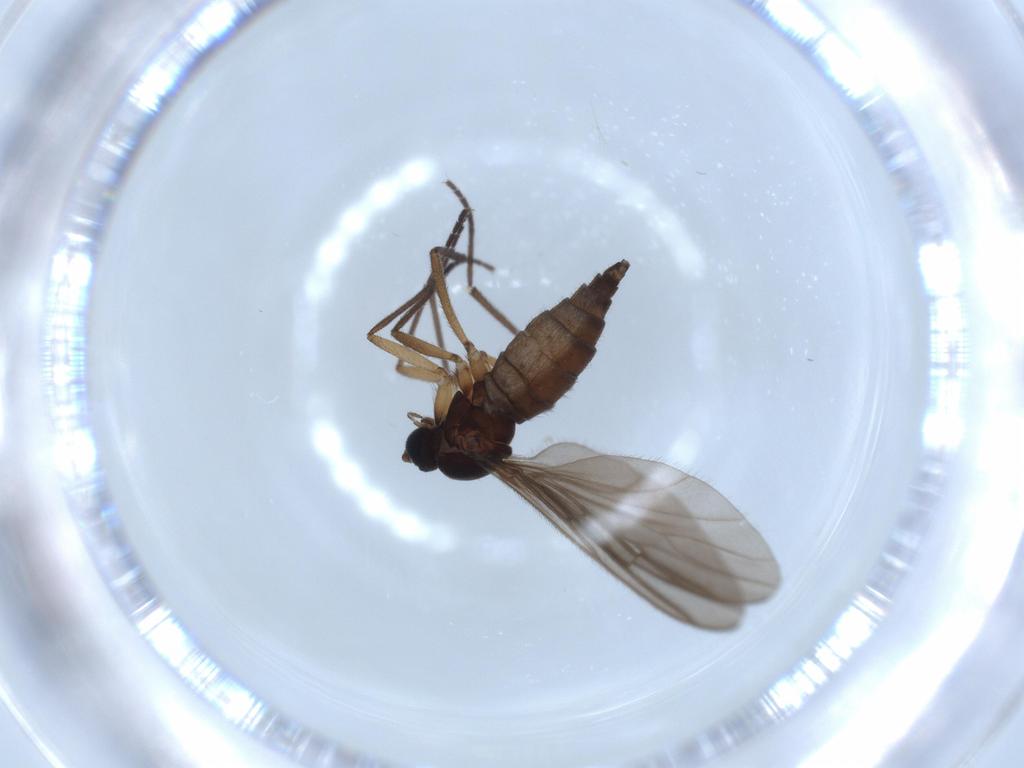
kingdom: Animalia
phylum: Arthropoda
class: Insecta
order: Diptera
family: Sciaridae
